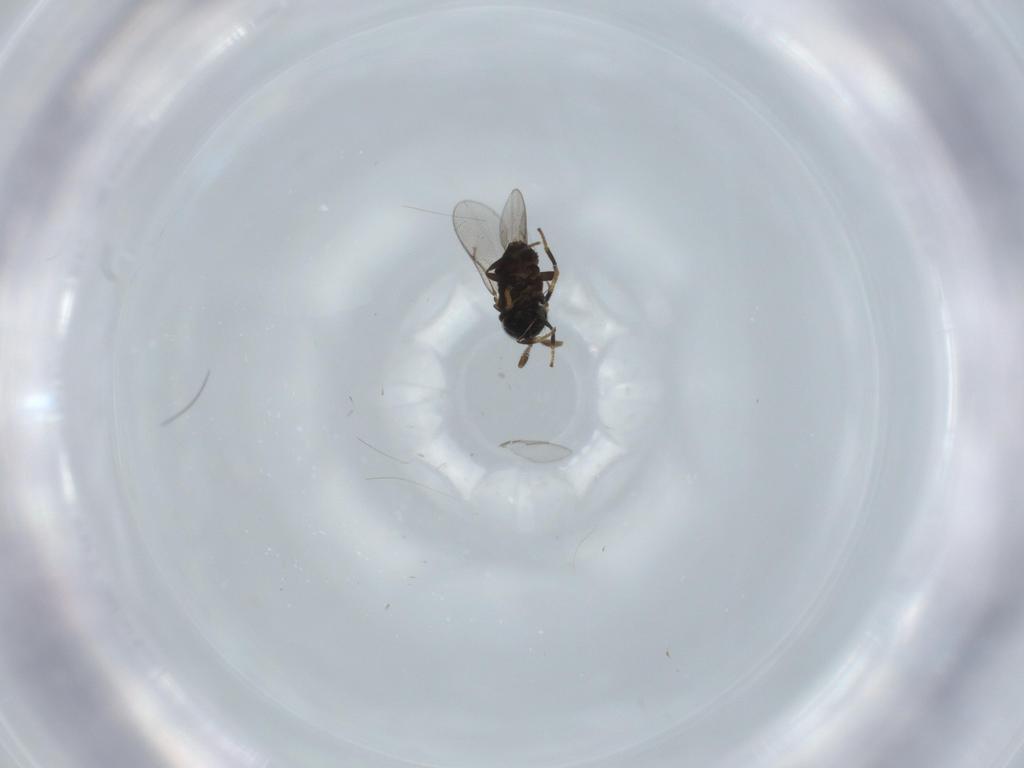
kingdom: Animalia
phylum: Arthropoda
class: Insecta
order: Hymenoptera
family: Encyrtidae
